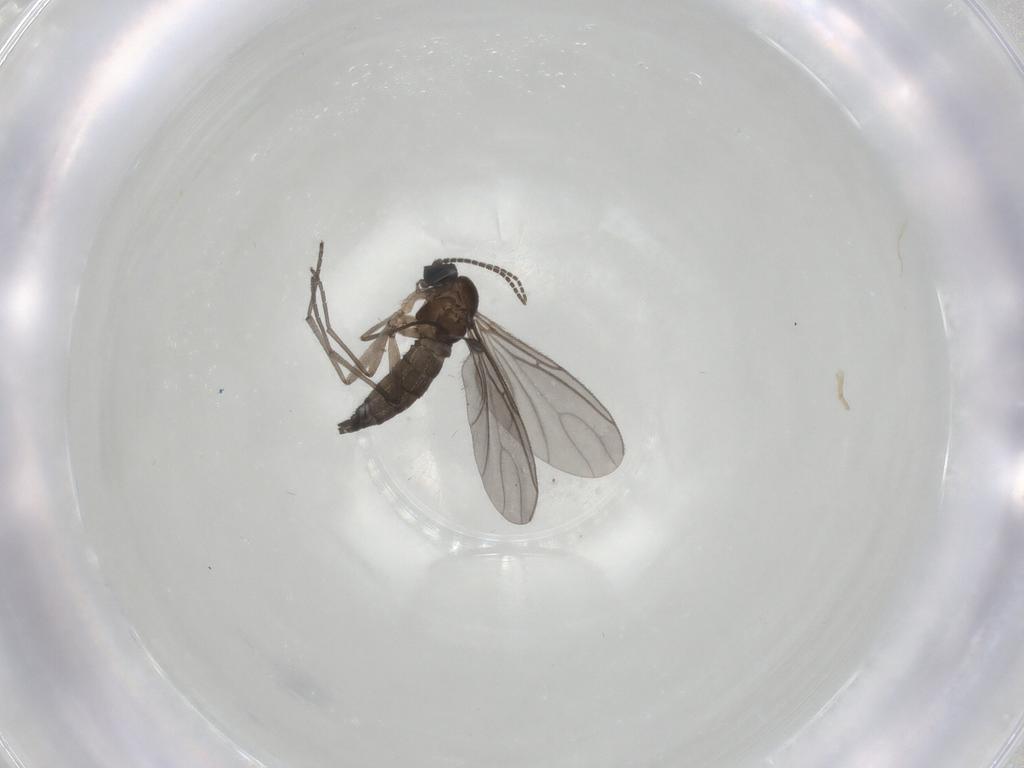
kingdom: Animalia
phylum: Arthropoda
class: Insecta
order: Diptera
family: Sciaridae
